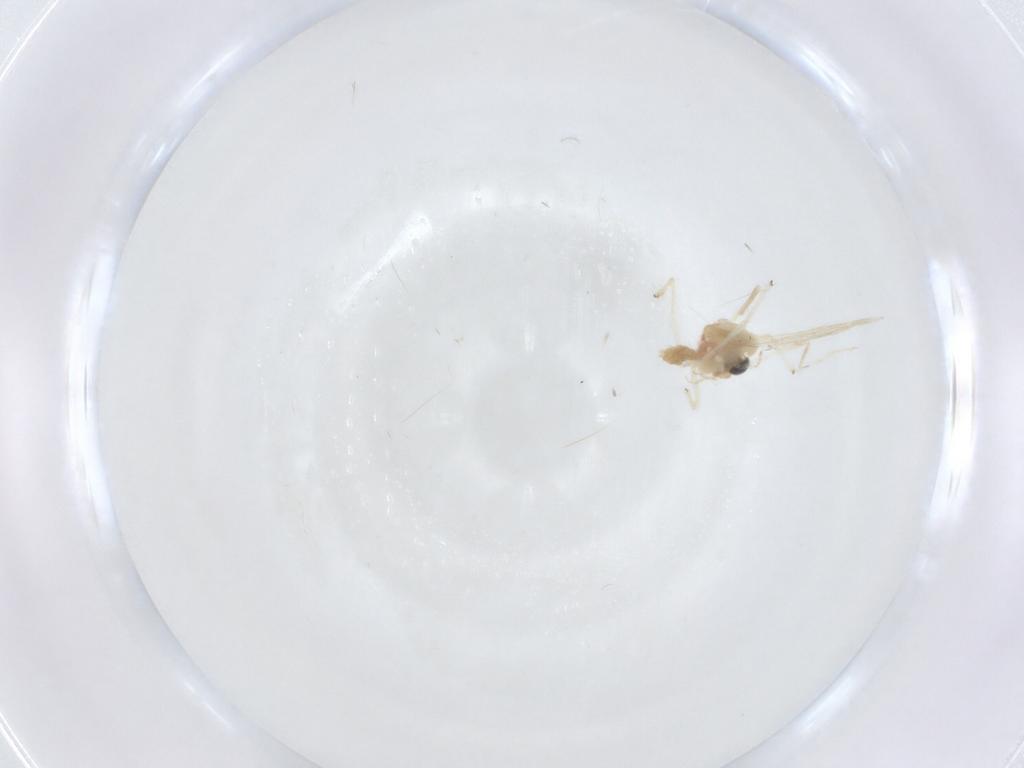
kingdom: Animalia
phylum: Arthropoda
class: Insecta
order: Diptera
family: Chironomidae
